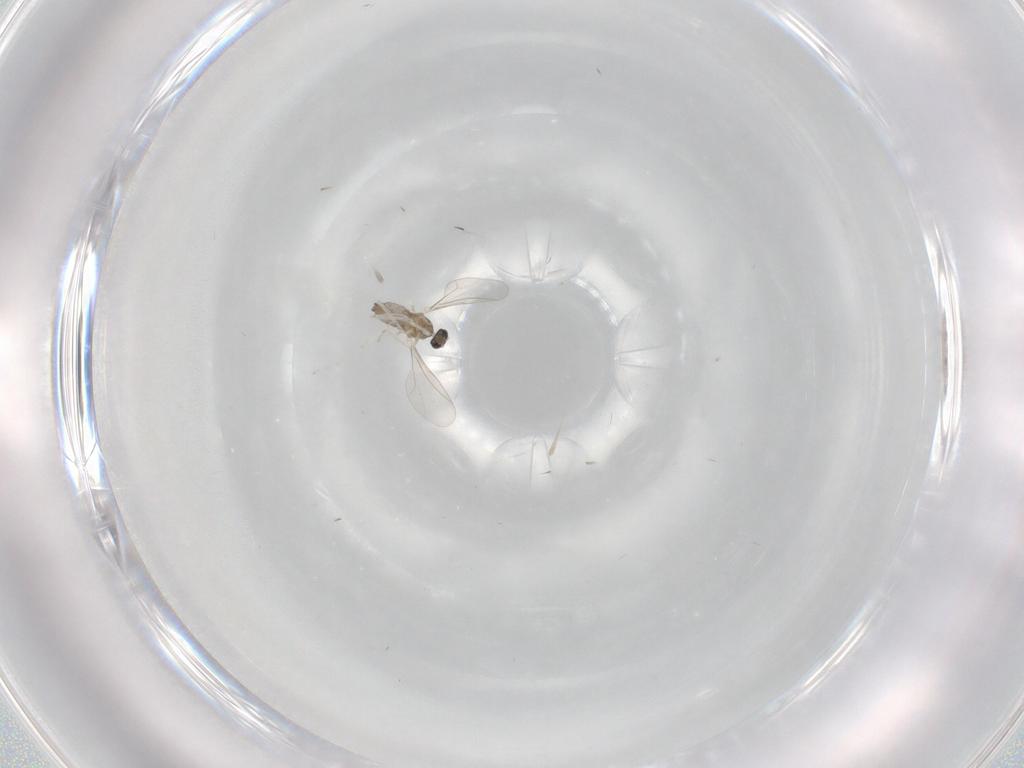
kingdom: Animalia
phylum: Arthropoda
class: Insecta
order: Diptera
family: Cecidomyiidae
